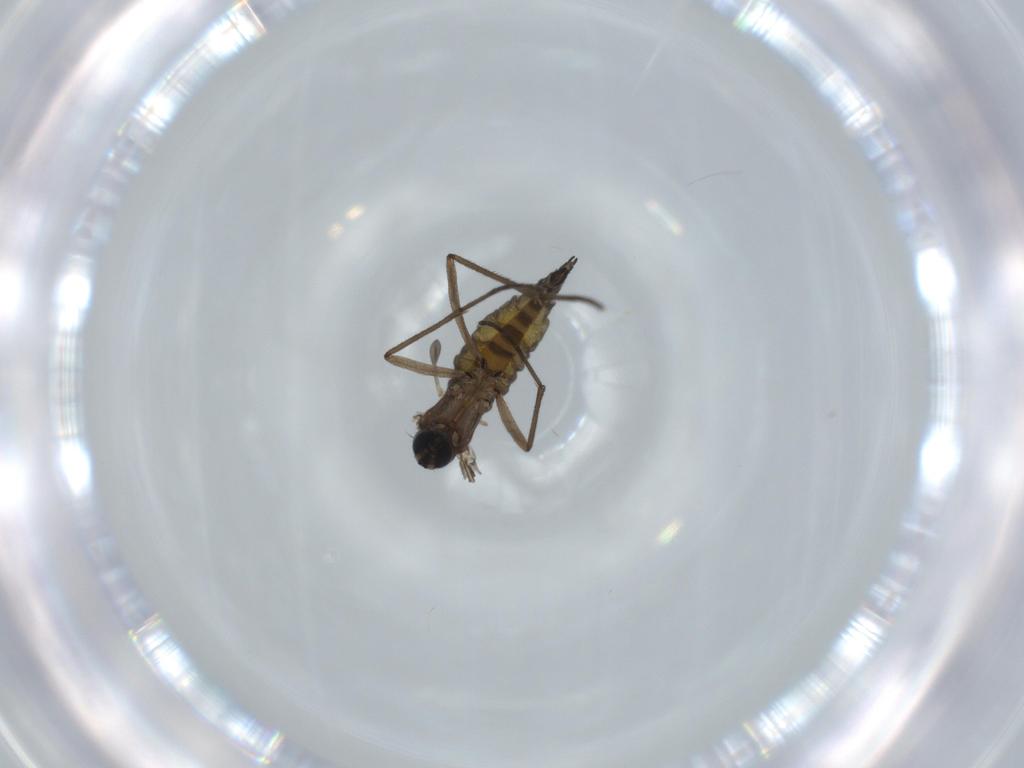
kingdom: Animalia
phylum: Arthropoda
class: Insecta
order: Diptera
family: Sciaridae
